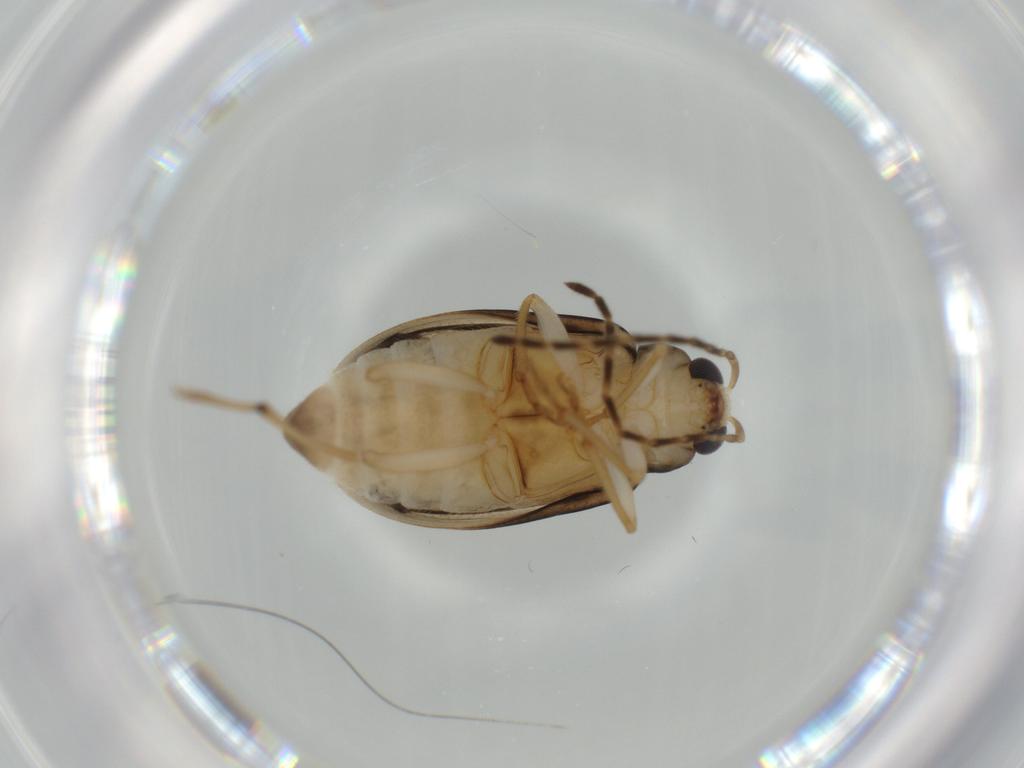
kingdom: Animalia
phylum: Arthropoda
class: Insecta
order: Coleoptera
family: Chrysomelidae
